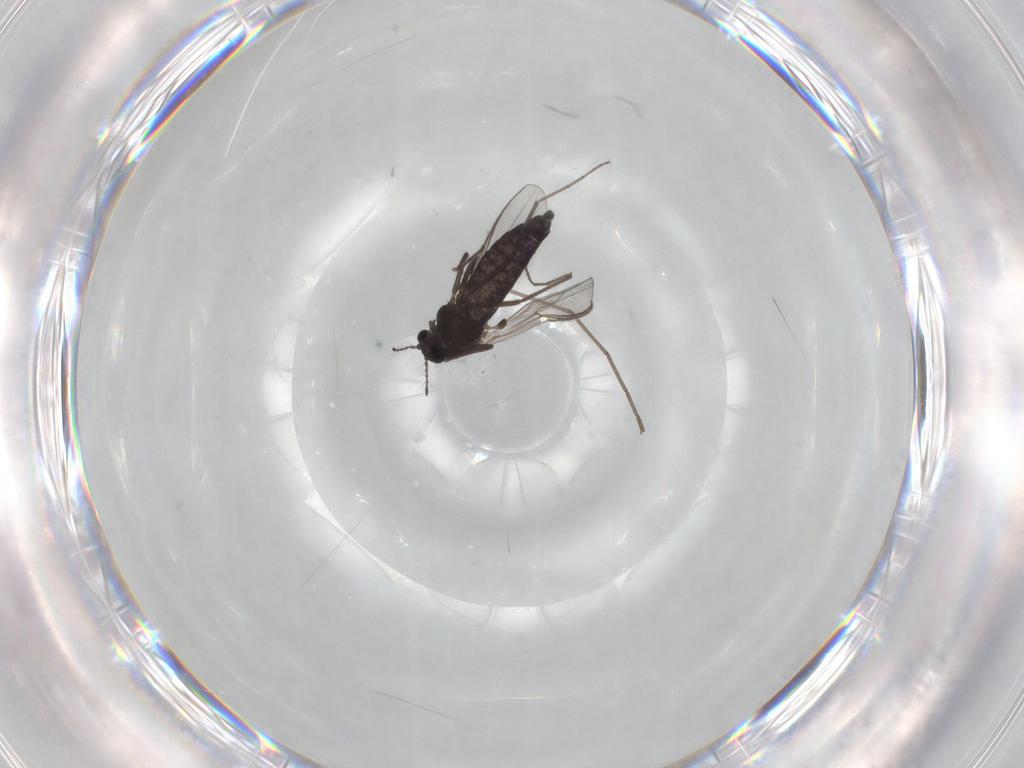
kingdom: Animalia
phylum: Arthropoda
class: Insecta
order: Diptera
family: Chironomidae
